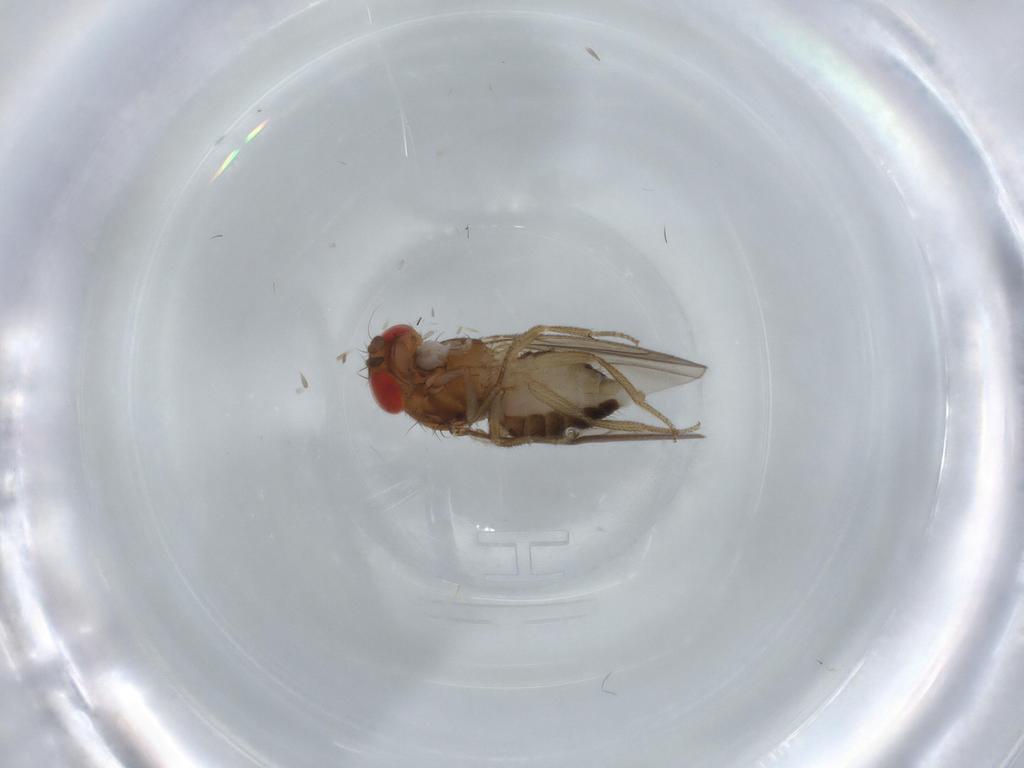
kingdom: Animalia
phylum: Arthropoda
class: Insecta
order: Diptera
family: Drosophilidae
